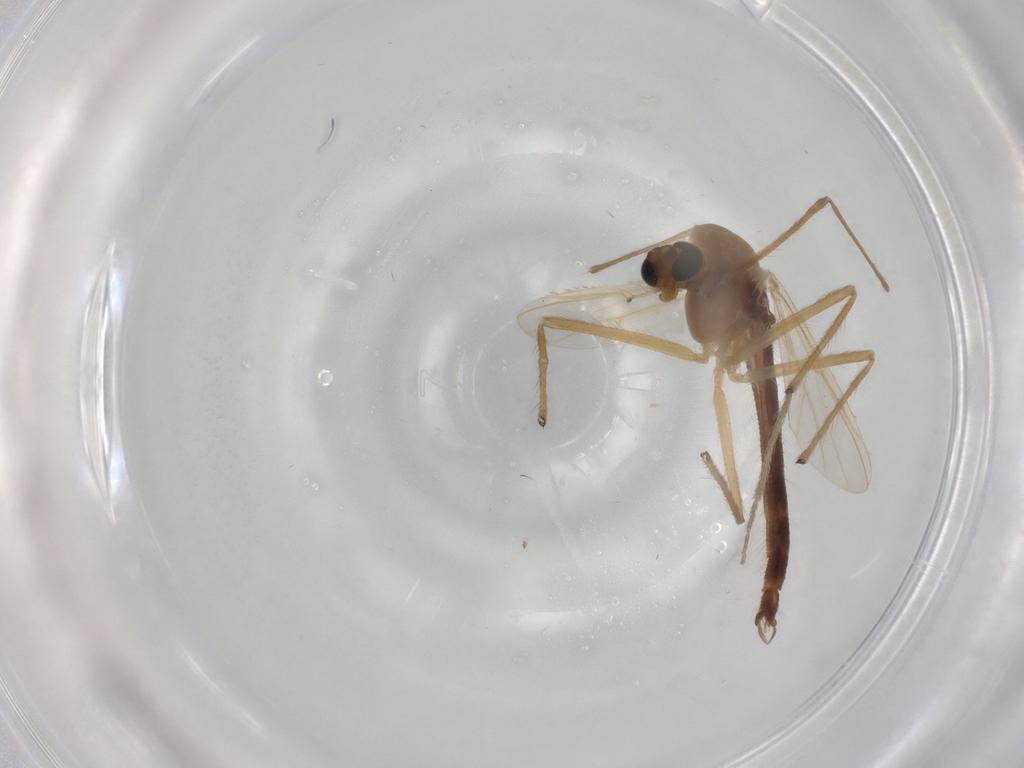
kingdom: Animalia
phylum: Arthropoda
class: Insecta
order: Diptera
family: Chironomidae
